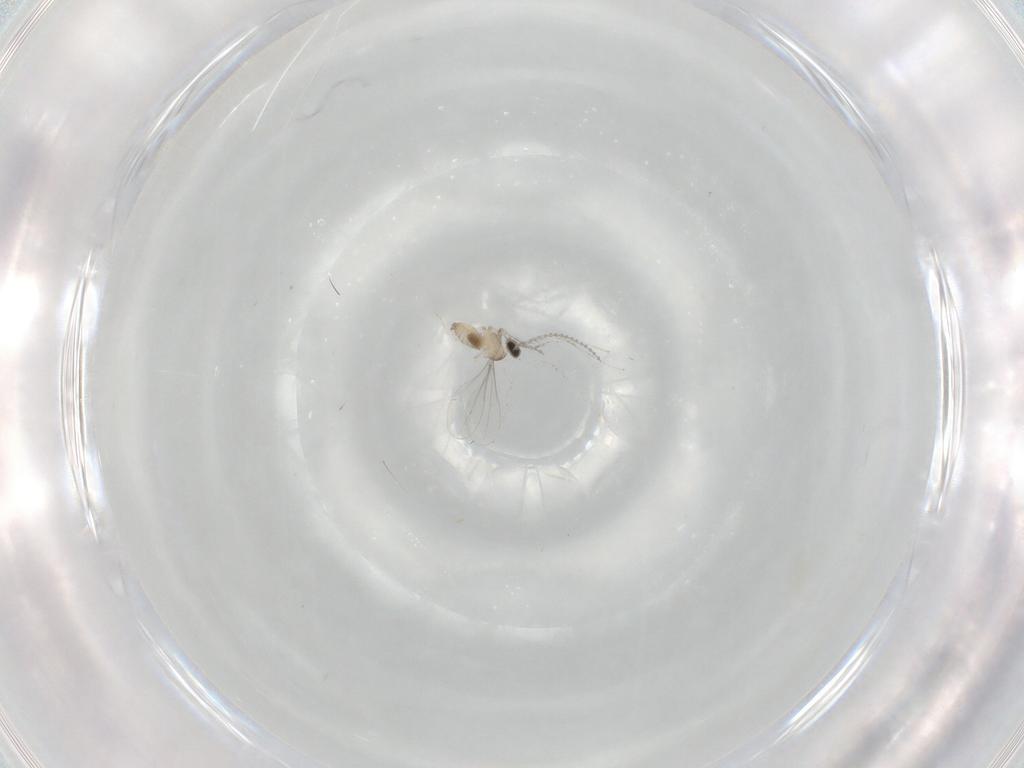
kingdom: Animalia
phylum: Arthropoda
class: Insecta
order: Diptera
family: Cecidomyiidae
